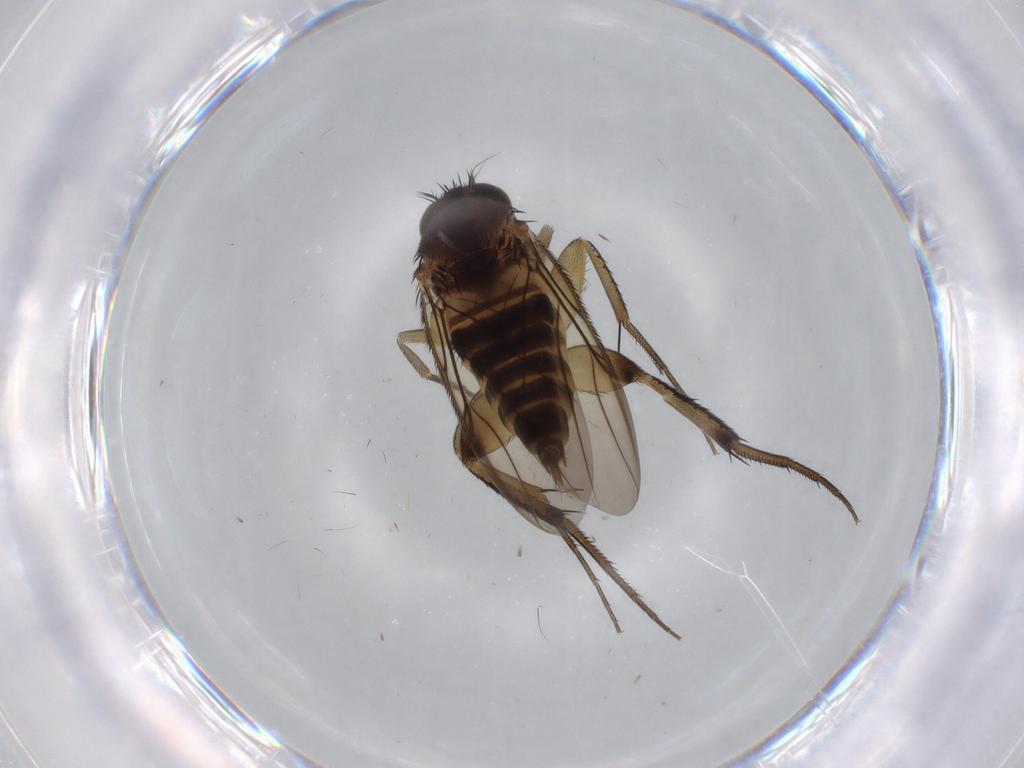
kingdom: Animalia
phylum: Arthropoda
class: Insecta
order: Diptera
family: Phoridae
